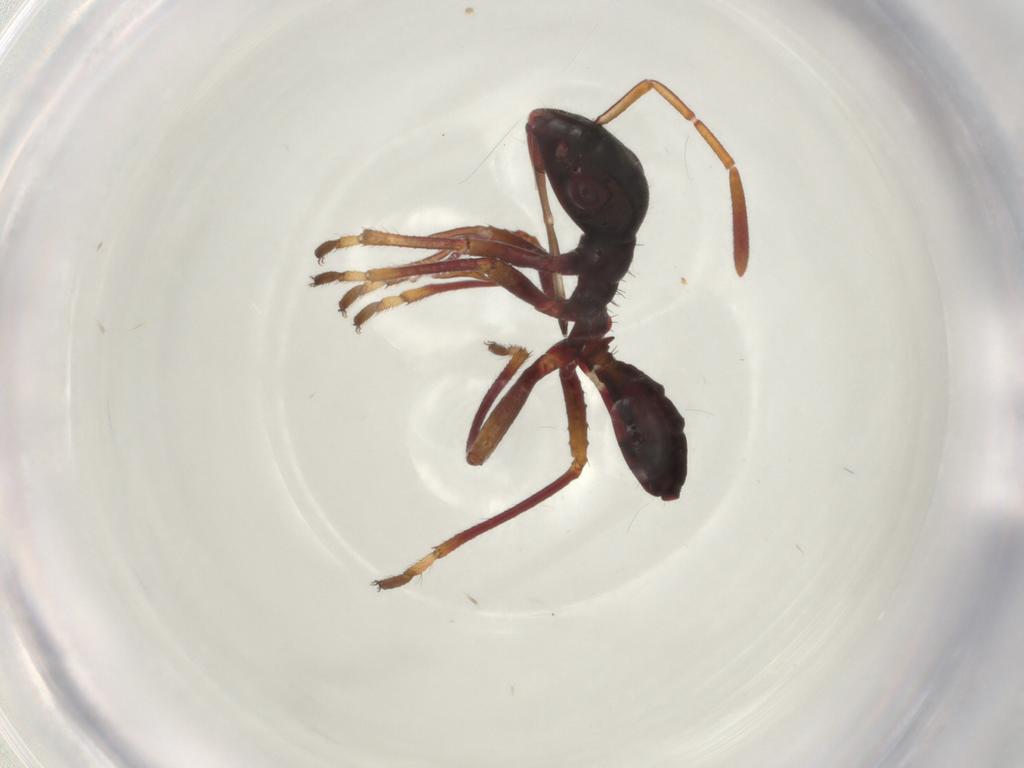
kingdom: Animalia
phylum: Arthropoda
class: Insecta
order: Hemiptera
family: Alydidae
